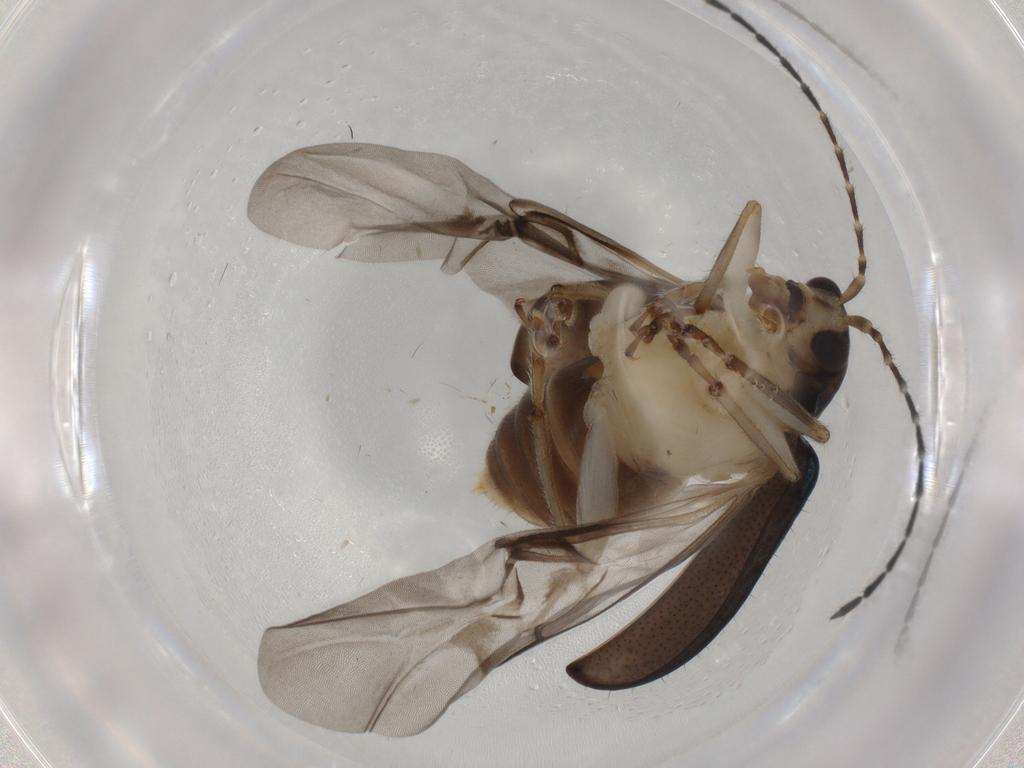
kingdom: Animalia
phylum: Arthropoda
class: Insecta
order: Coleoptera
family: Chrysomelidae
